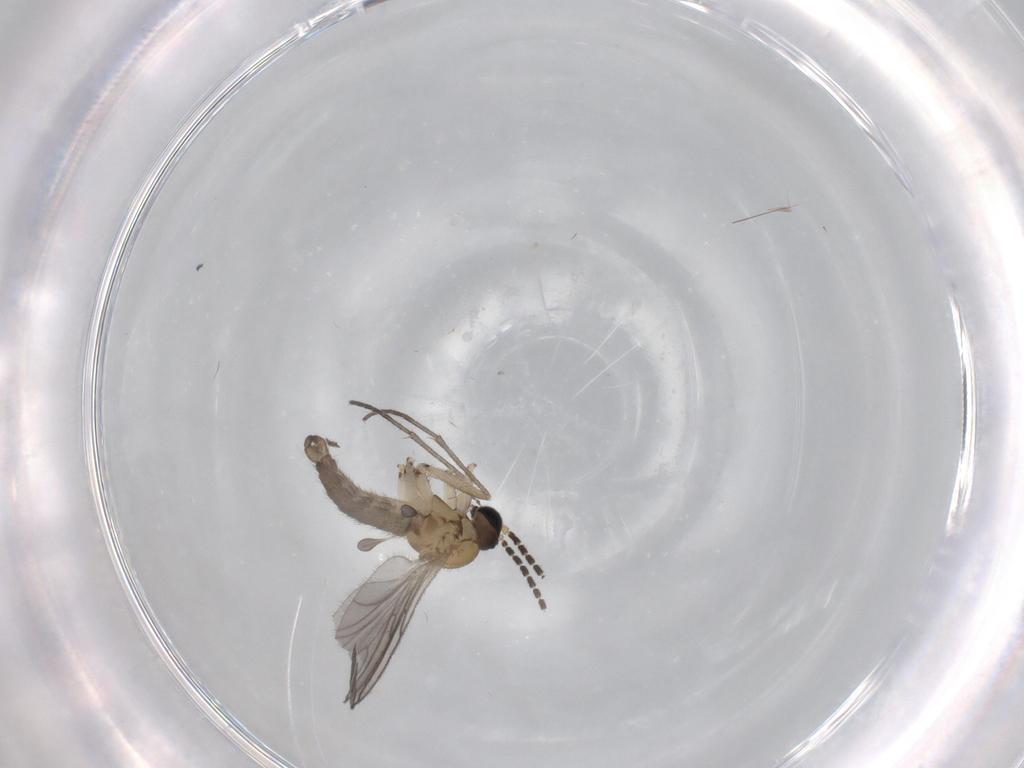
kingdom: Animalia
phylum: Arthropoda
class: Insecta
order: Diptera
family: Sciaridae
